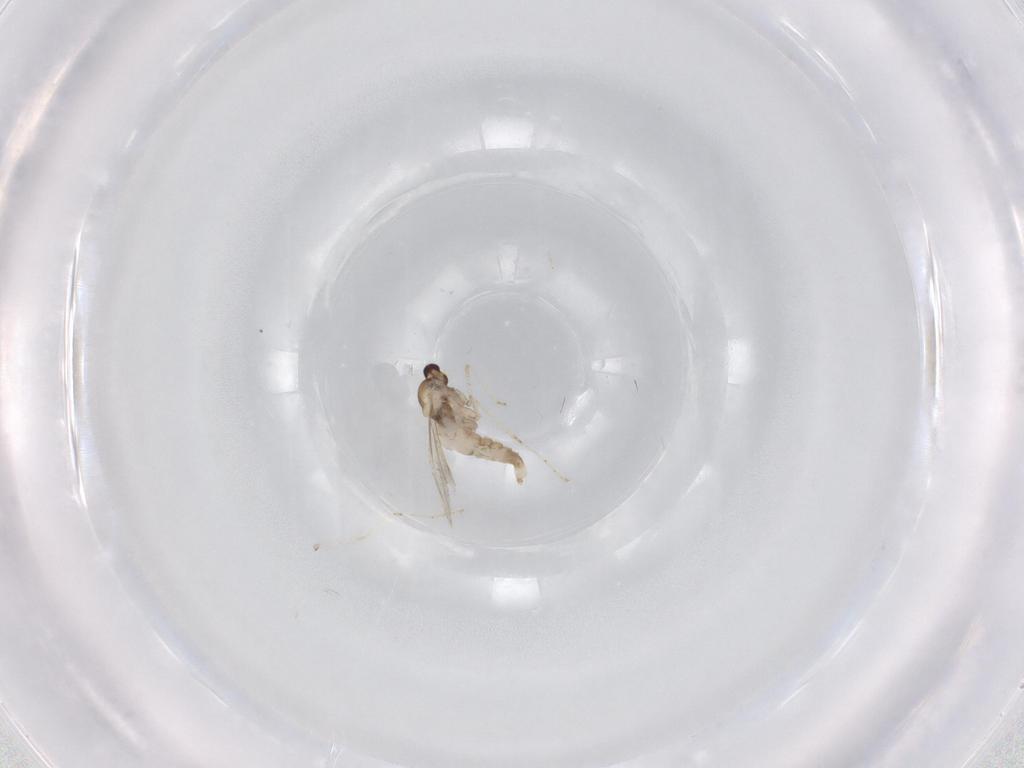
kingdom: Animalia
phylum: Arthropoda
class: Insecta
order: Diptera
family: Cecidomyiidae
